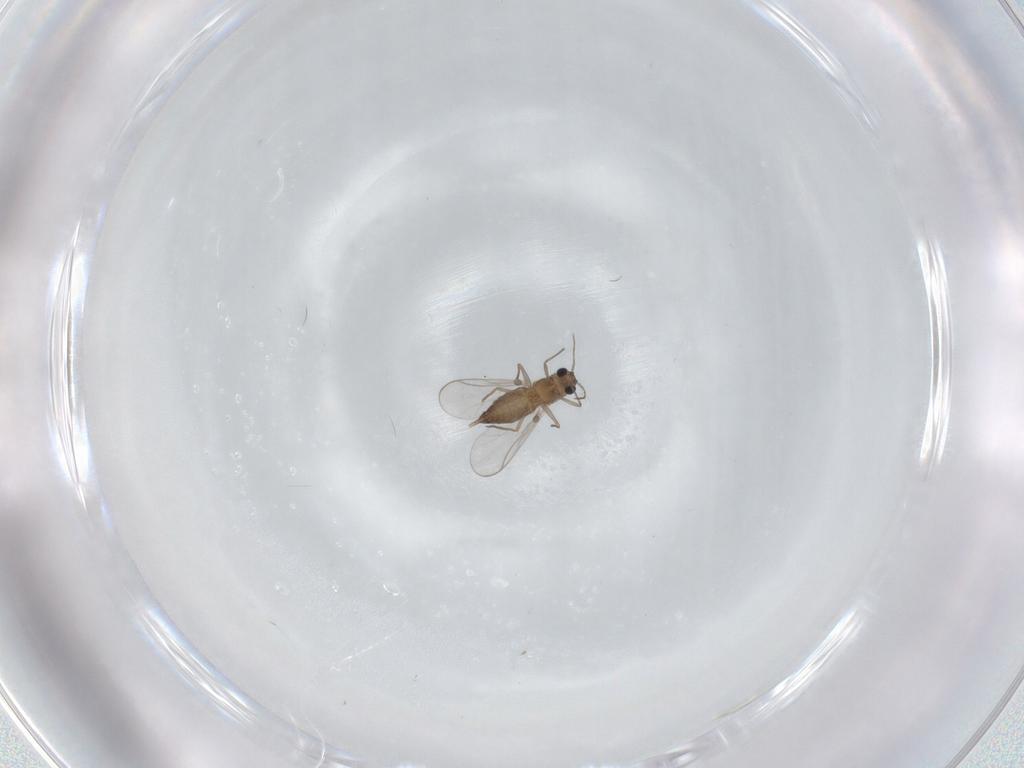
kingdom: Animalia
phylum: Arthropoda
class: Insecta
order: Diptera
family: Chironomidae
